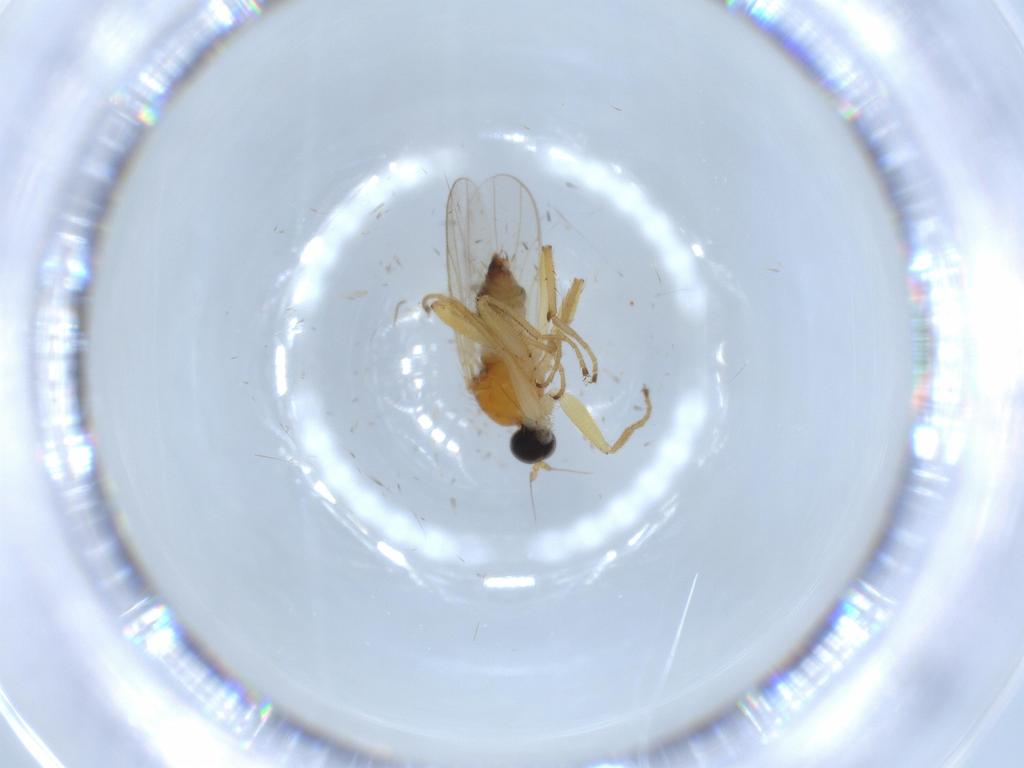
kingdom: Animalia
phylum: Arthropoda
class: Insecta
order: Diptera
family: Hybotidae
